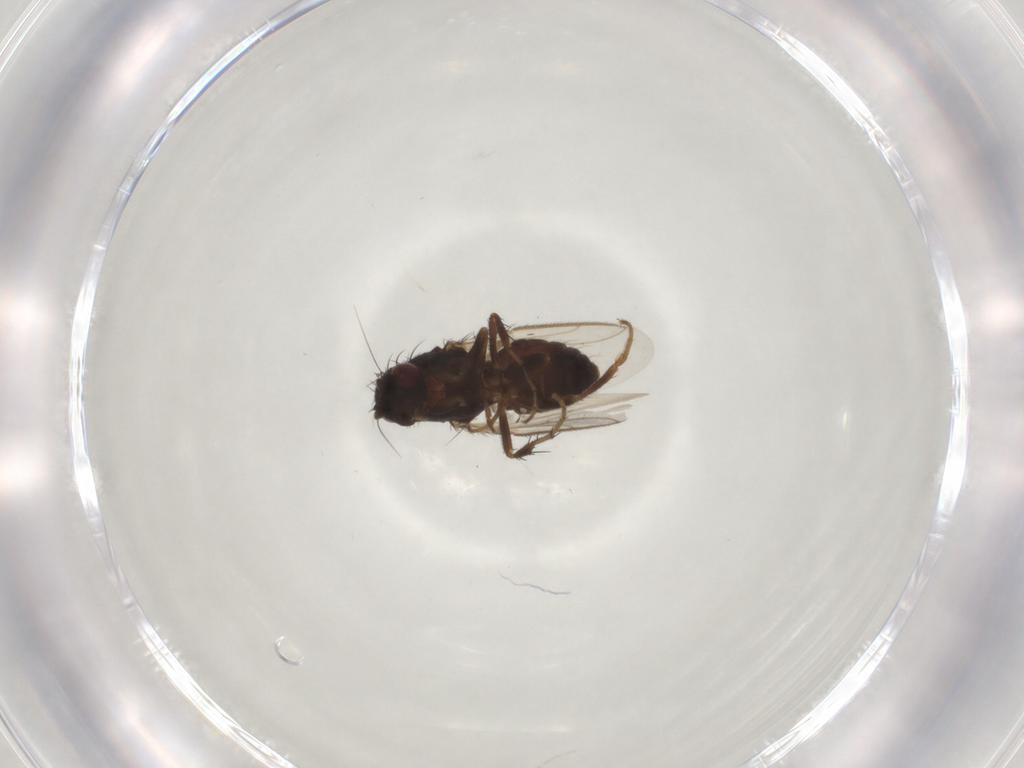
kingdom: Animalia
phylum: Arthropoda
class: Insecta
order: Diptera
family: Sphaeroceridae
